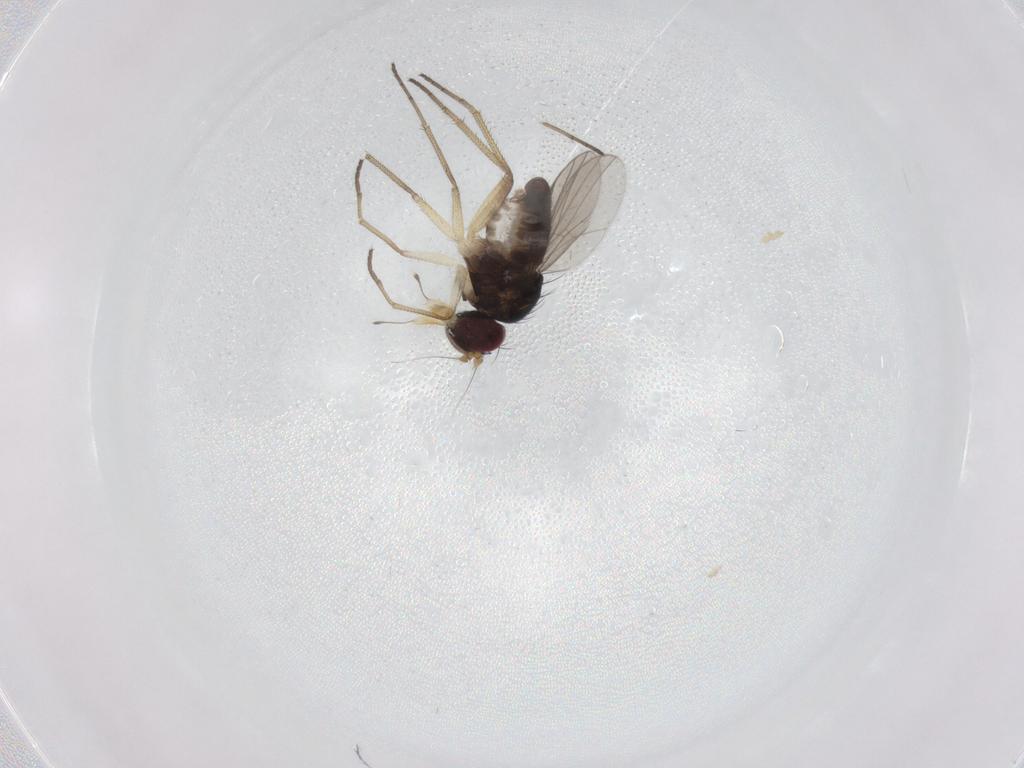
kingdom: Animalia
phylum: Arthropoda
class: Insecta
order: Diptera
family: Dolichopodidae
